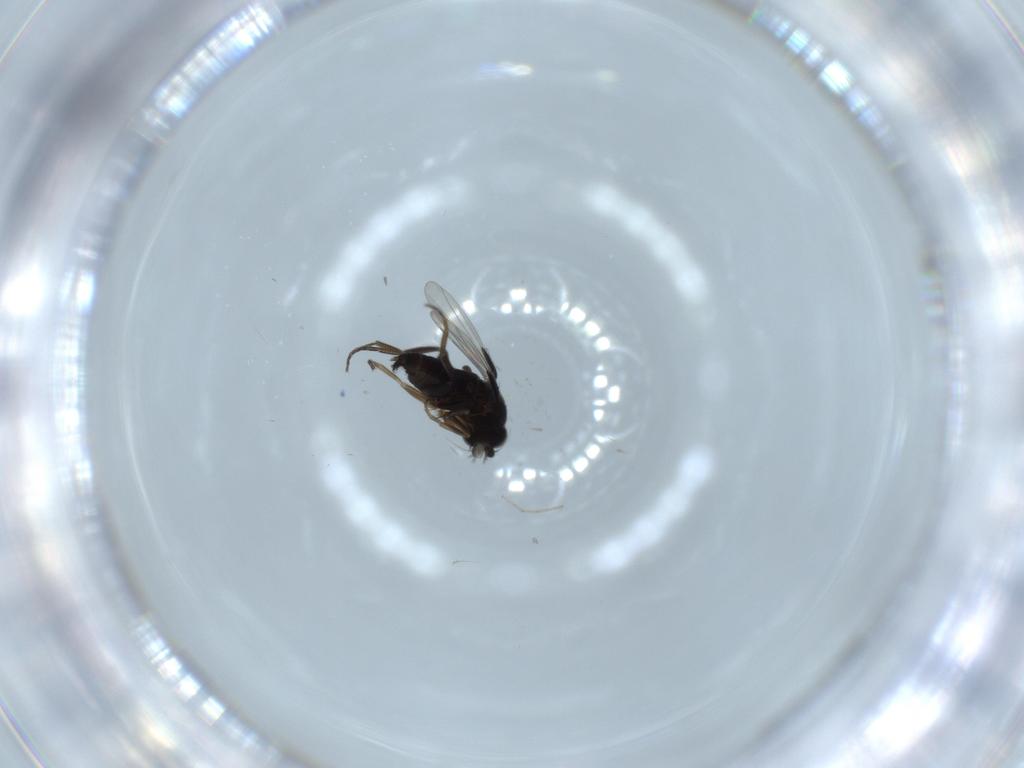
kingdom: Animalia
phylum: Arthropoda
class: Insecta
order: Diptera
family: Phoridae
